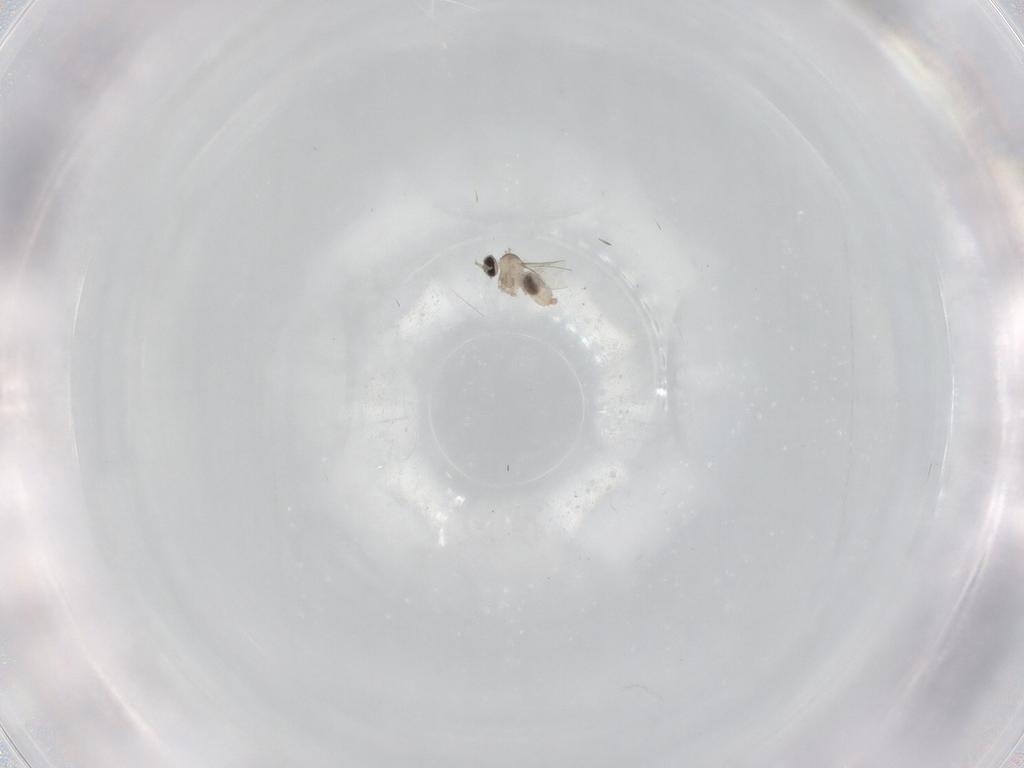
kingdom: Animalia
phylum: Arthropoda
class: Insecta
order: Diptera
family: Cecidomyiidae
